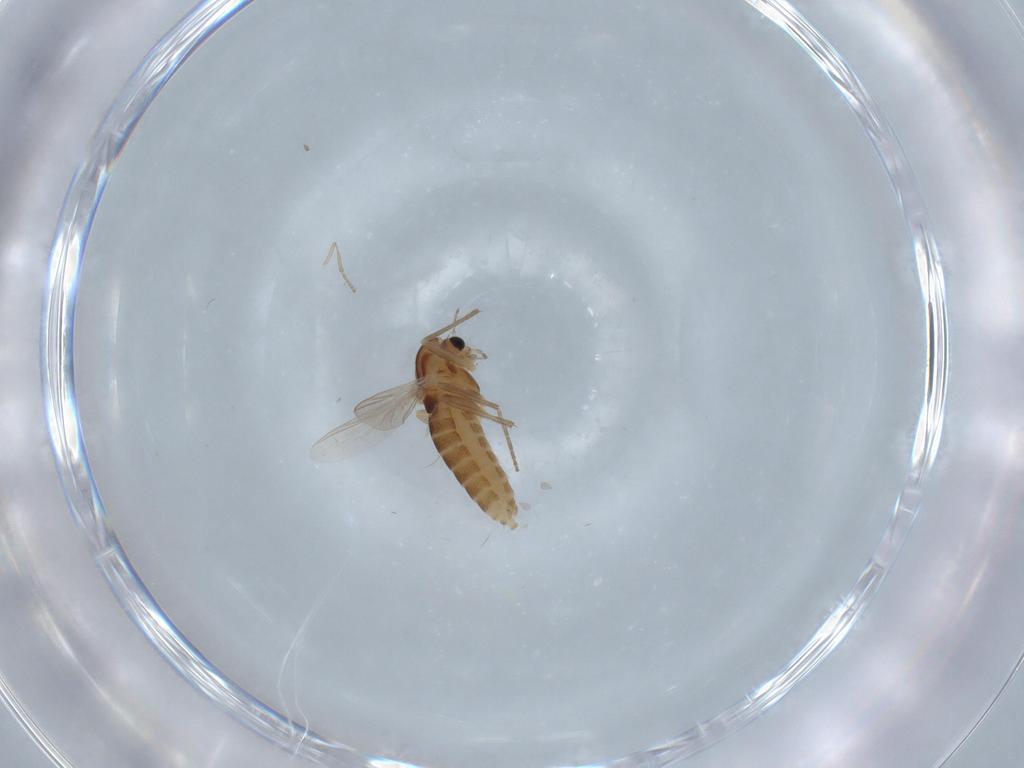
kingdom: Animalia
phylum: Arthropoda
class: Insecta
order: Diptera
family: Chironomidae
